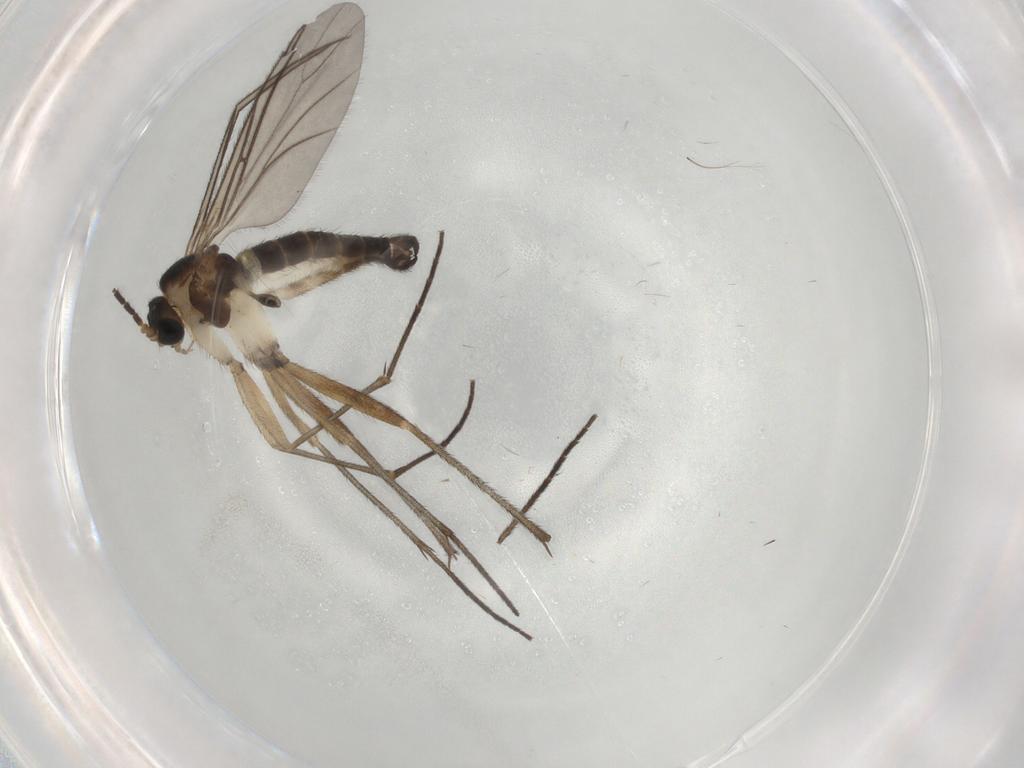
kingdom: Animalia
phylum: Arthropoda
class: Insecta
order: Diptera
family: Sciaridae
